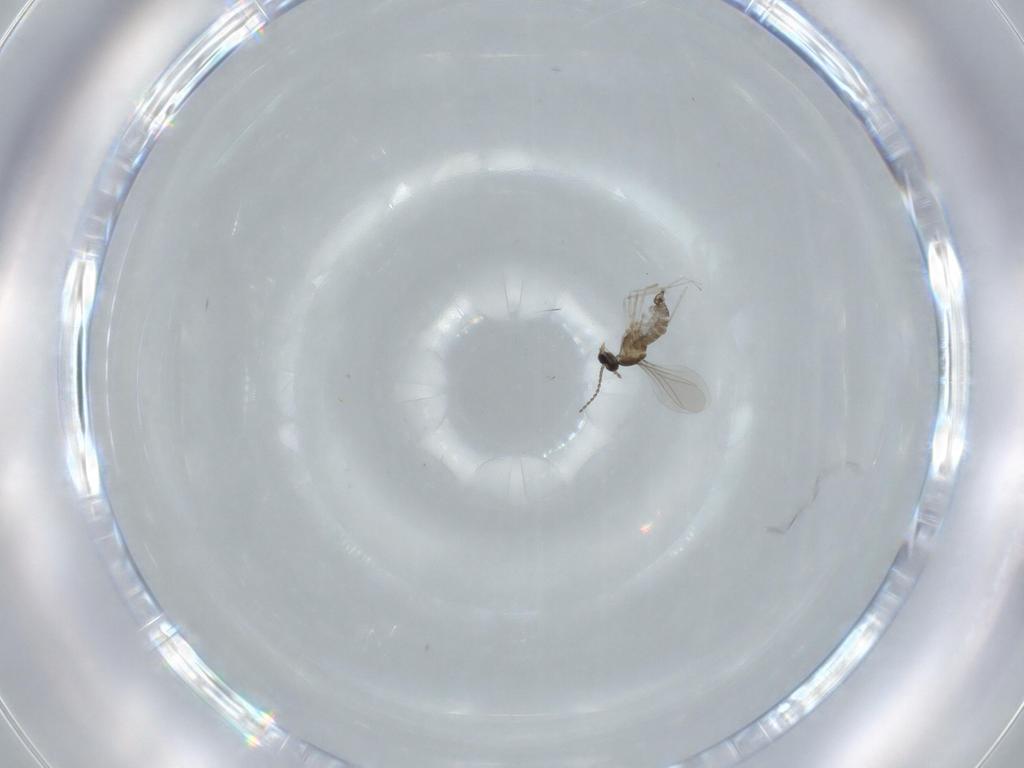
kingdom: Animalia
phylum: Arthropoda
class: Insecta
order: Diptera
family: Cecidomyiidae
